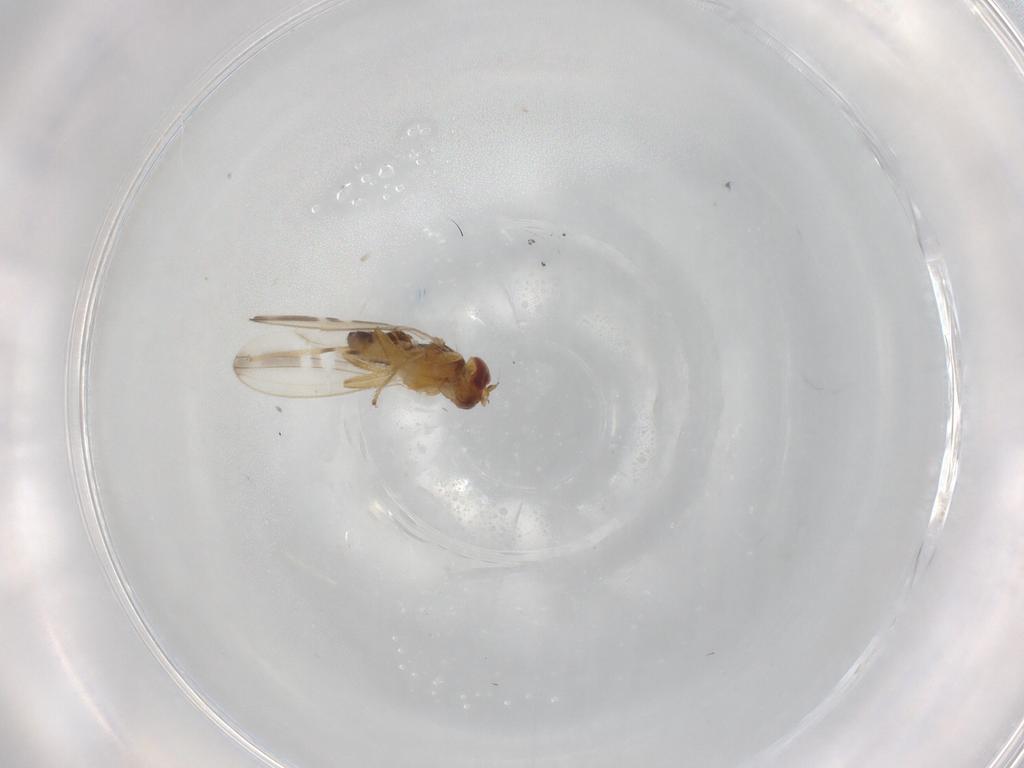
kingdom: Animalia
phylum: Arthropoda
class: Insecta
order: Diptera
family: Periscelididae
